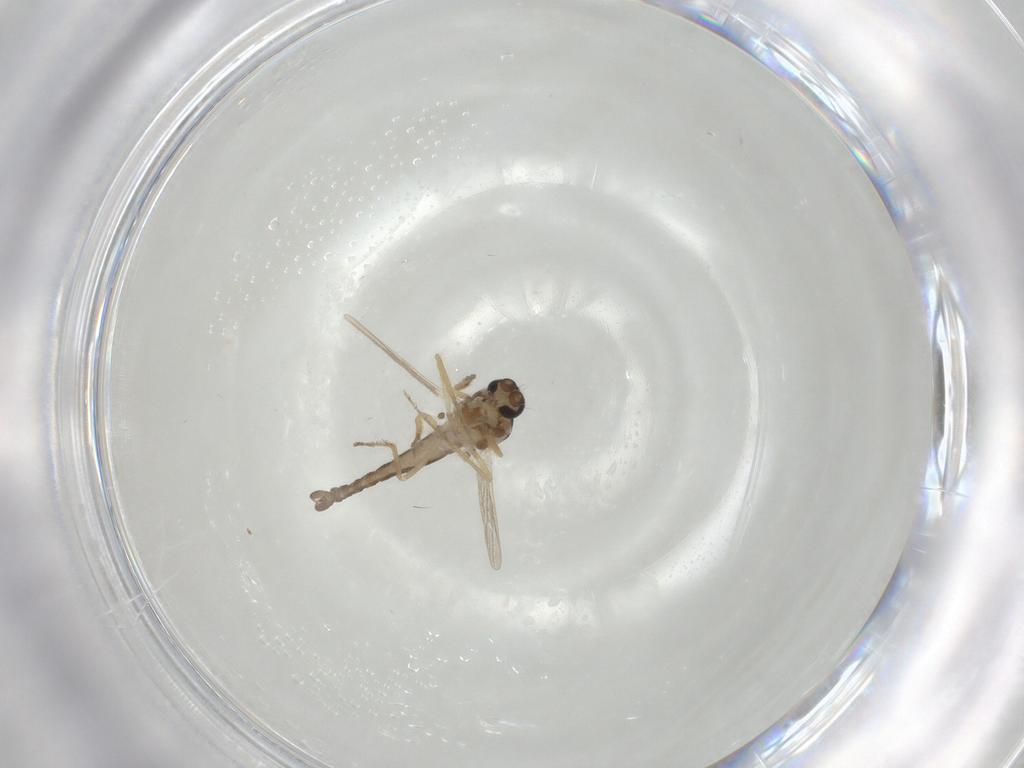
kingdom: Animalia
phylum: Arthropoda
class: Insecta
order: Diptera
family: Ceratopogonidae
